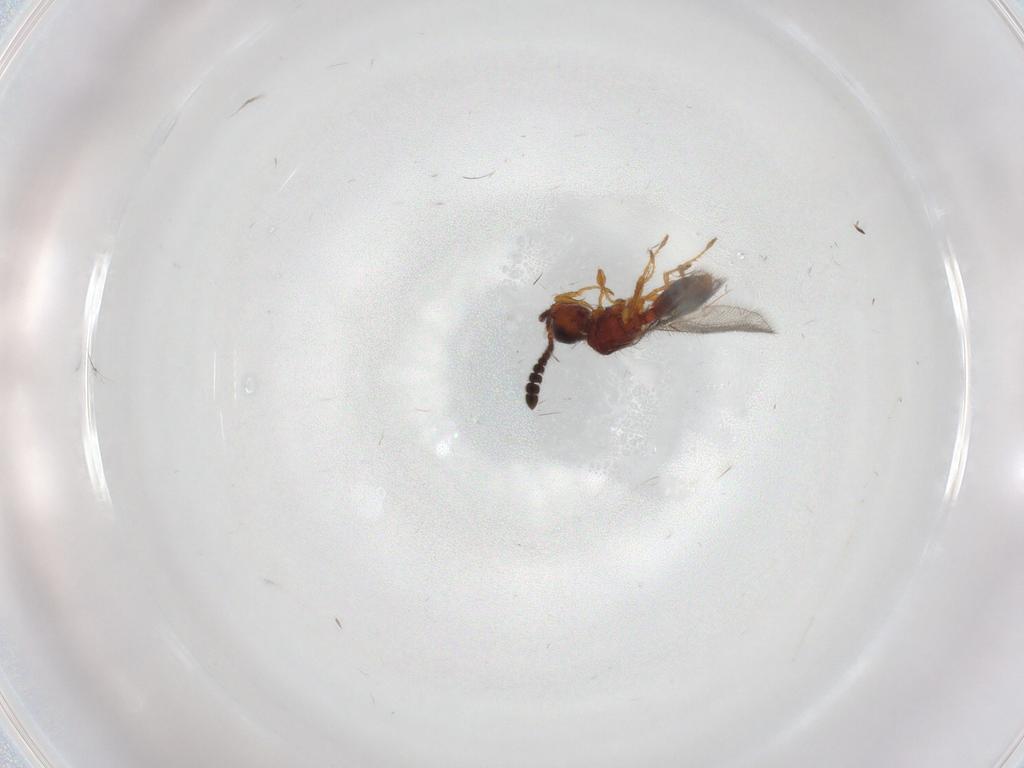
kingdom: Animalia
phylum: Arthropoda
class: Insecta
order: Hymenoptera
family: Diapriidae
